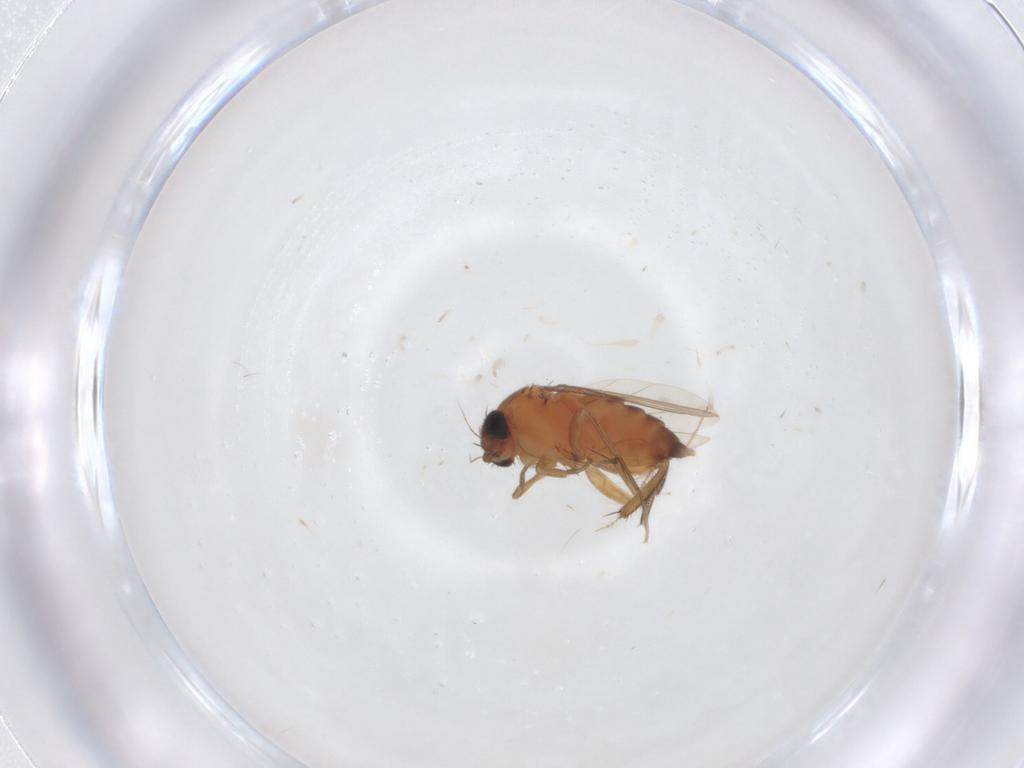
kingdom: Animalia
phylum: Arthropoda
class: Insecta
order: Diptera
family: Phoridae
